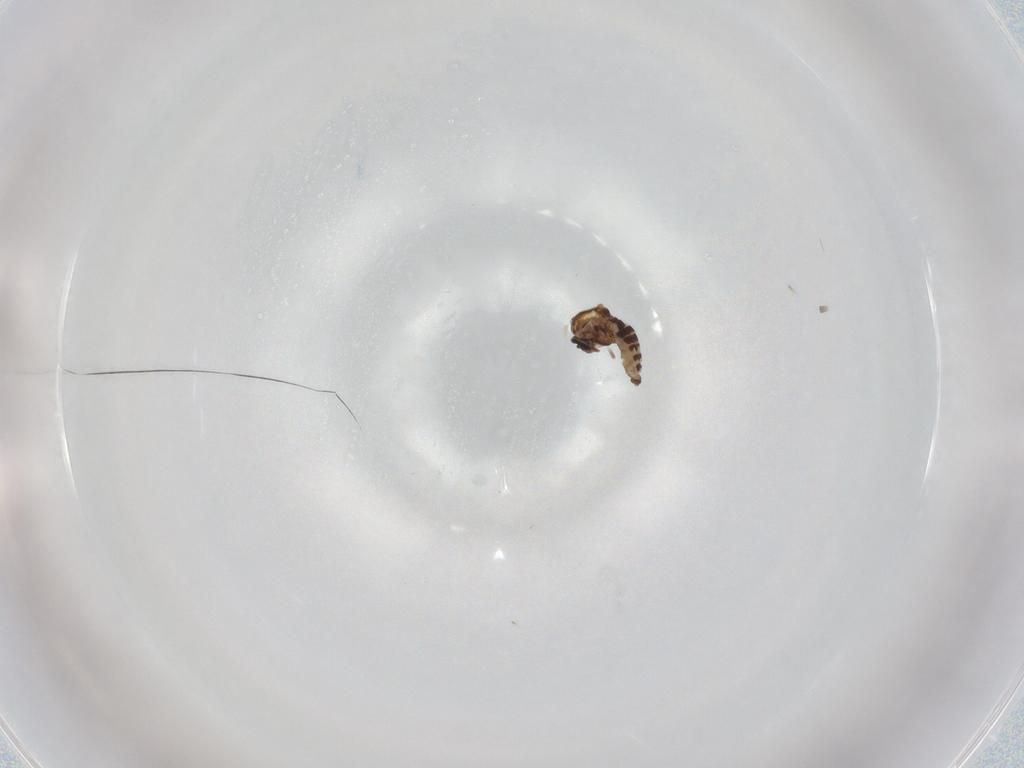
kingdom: Animalia
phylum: Arthropoda
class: Insecta
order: Diptera
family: Ceratopogonidae
